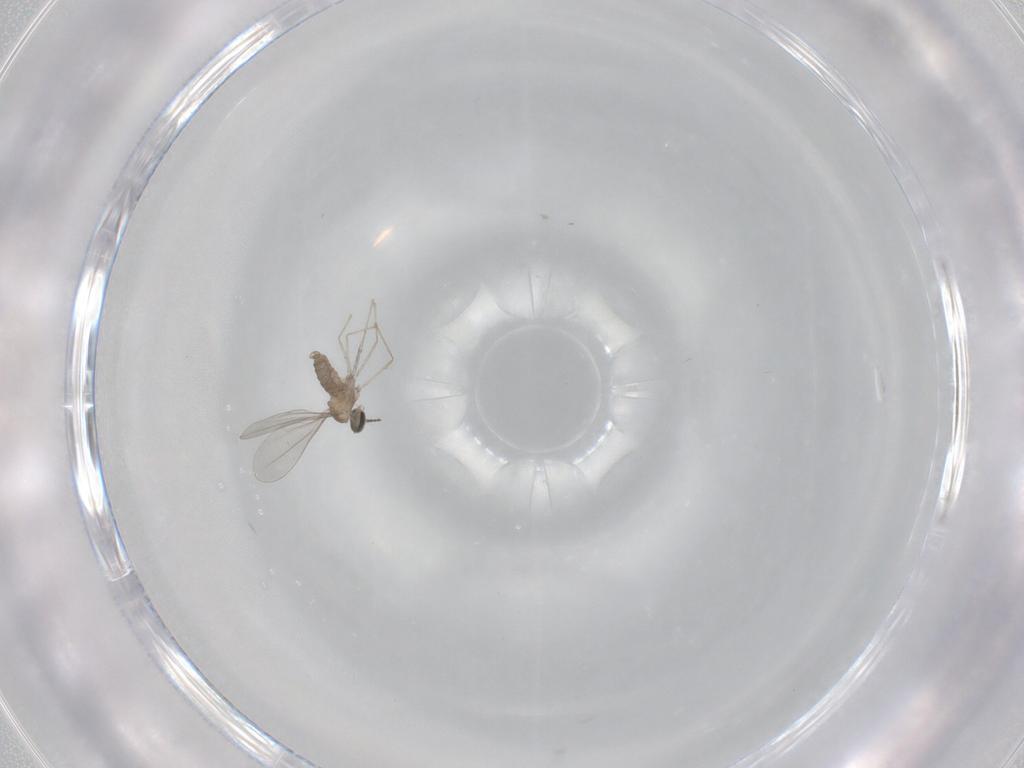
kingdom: Animalia
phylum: Arthropoda
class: Insecta
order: Diptera
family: Cecidomyiidae
